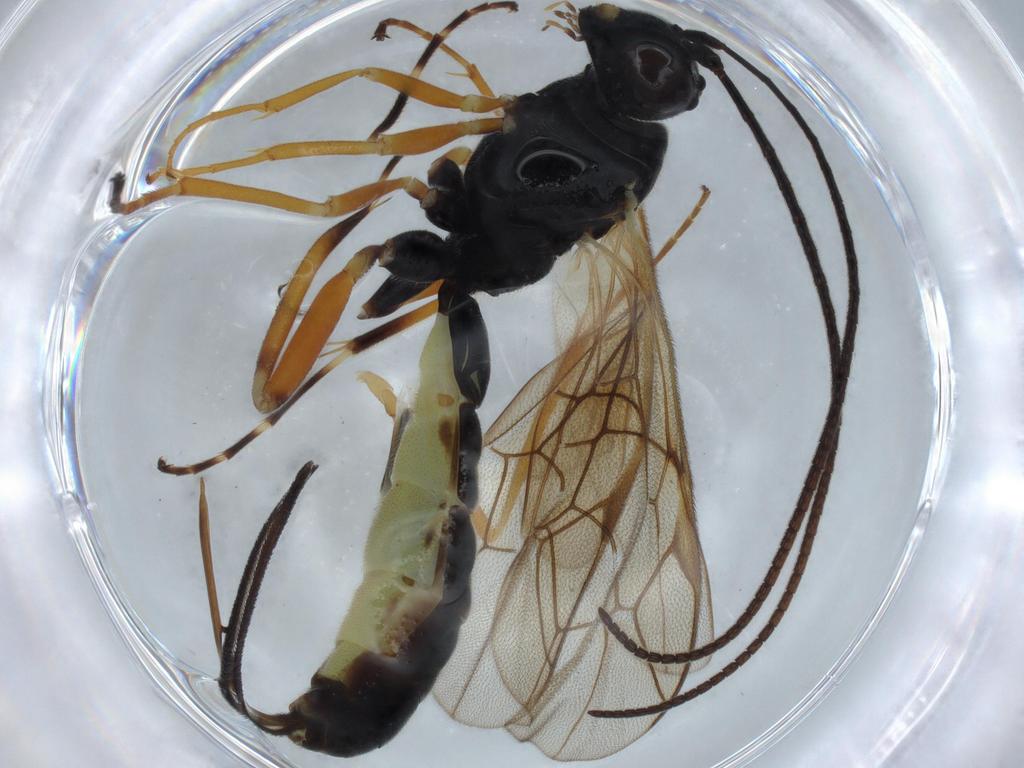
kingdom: Animalia
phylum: Arthropoda
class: Insecta
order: Hymenoptera
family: Ichneumonidae
